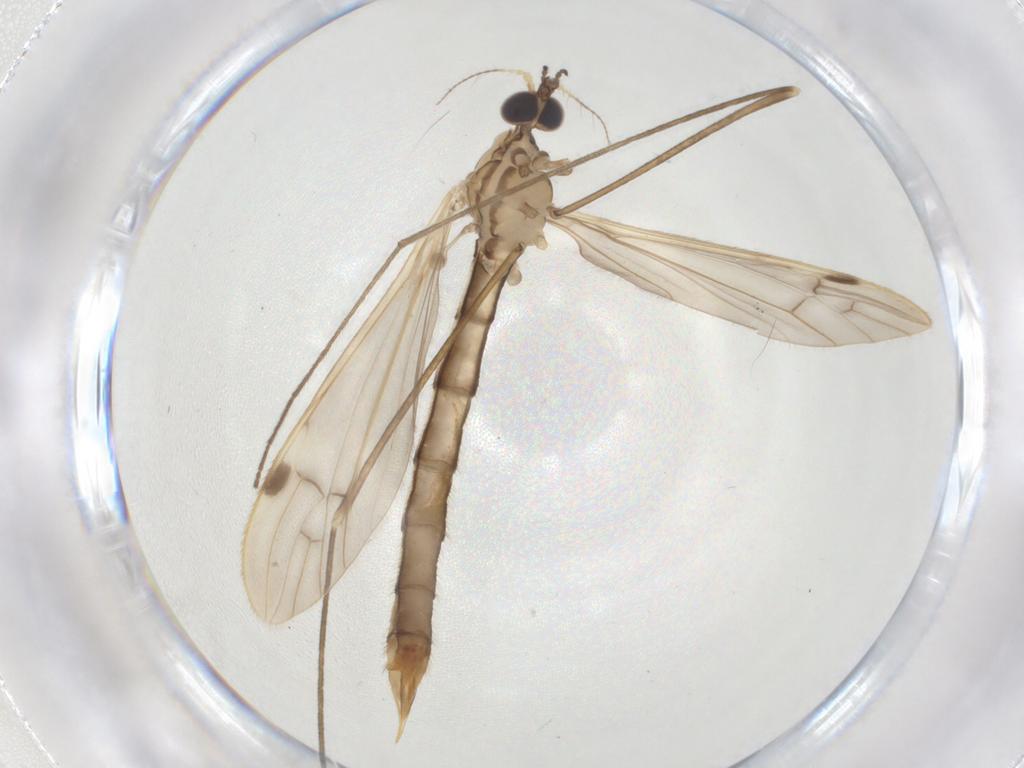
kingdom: Animalia
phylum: Arthropoda
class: Insecta
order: Diptera
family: Limoniidae
